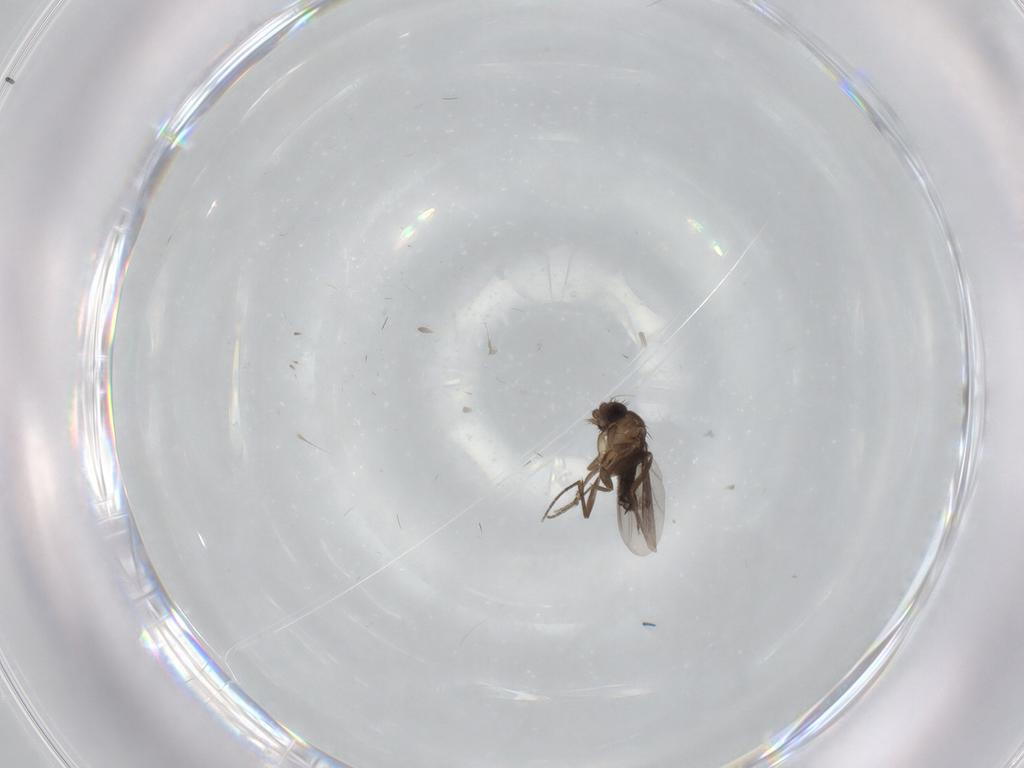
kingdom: Animalia
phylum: Arthropoda
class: Insecta
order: Diptera
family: Phoridae
